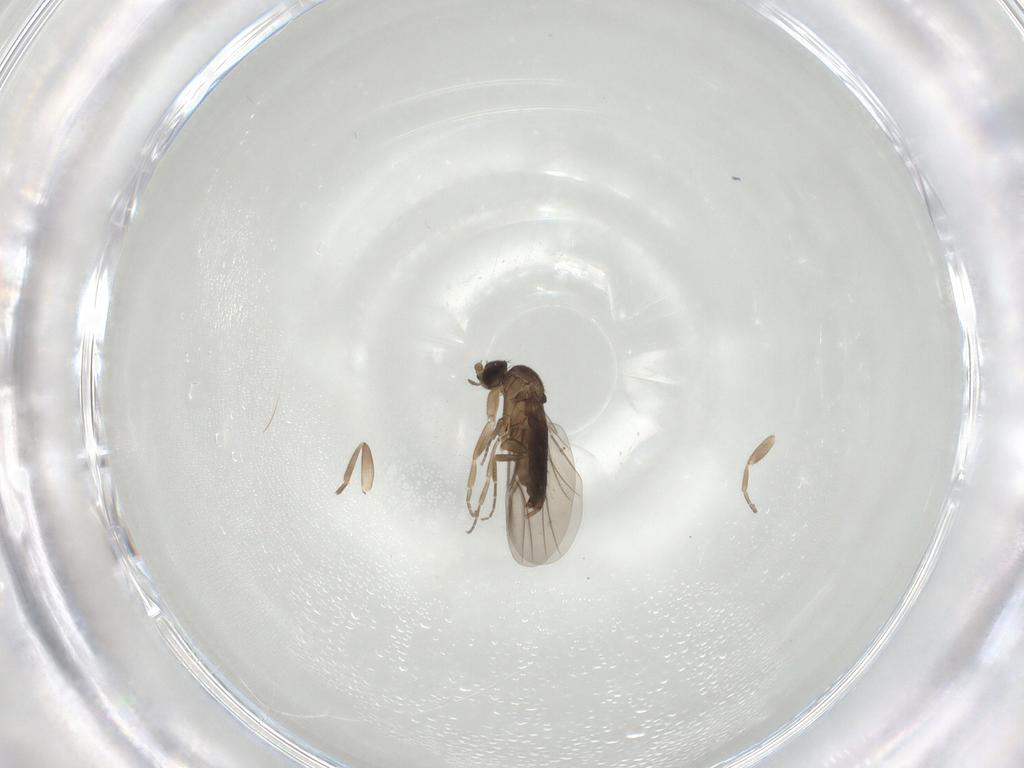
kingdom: Animalia
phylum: Arthropoda
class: Insecta
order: Diptera
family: Phoridae
